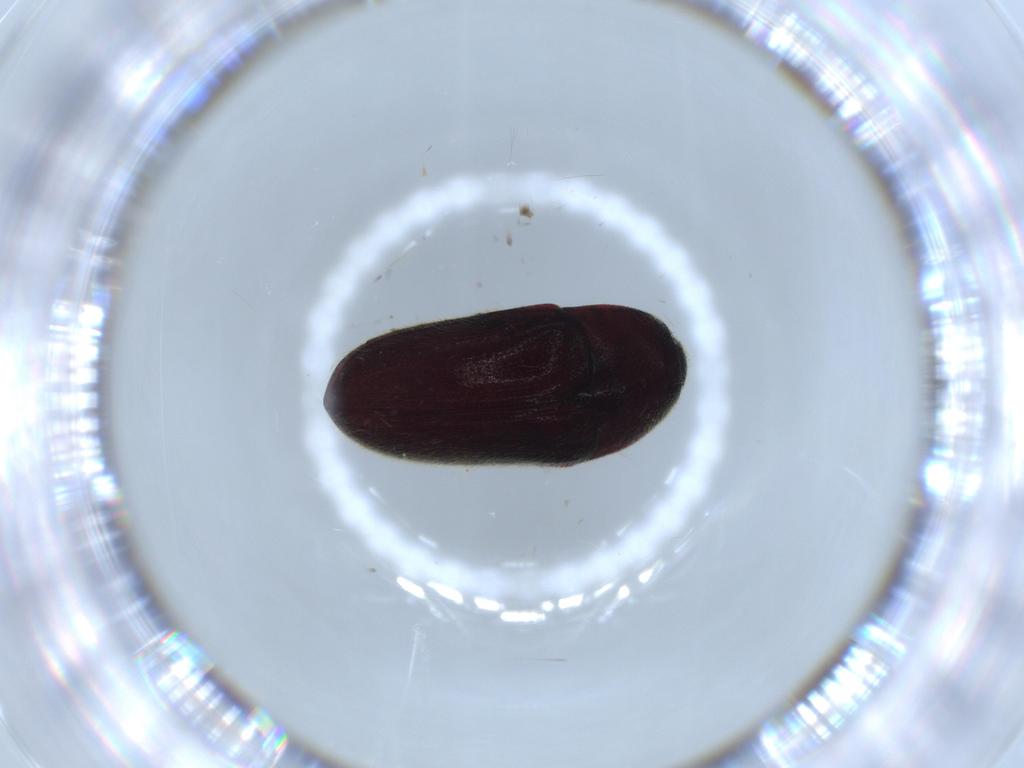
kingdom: Animalia
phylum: Arthropoda
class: Insecta
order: Coleoptera
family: Throscidae
